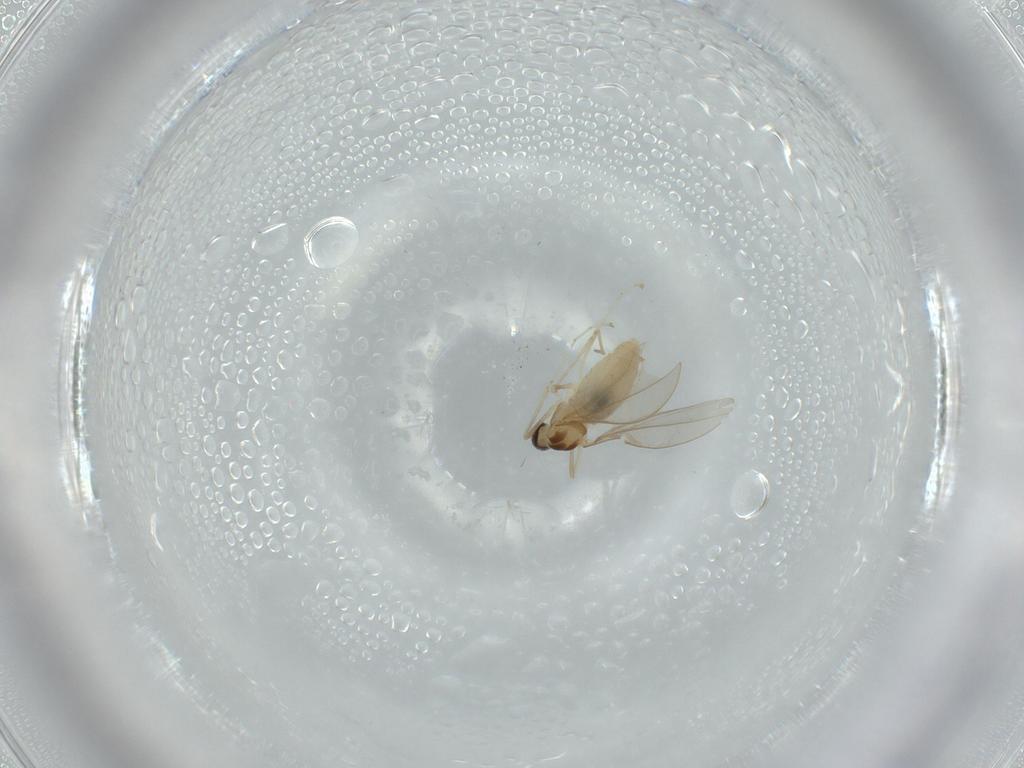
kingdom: Animalia
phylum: Arthropoda
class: Insecta
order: Diptera
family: Cecidomyiidae
